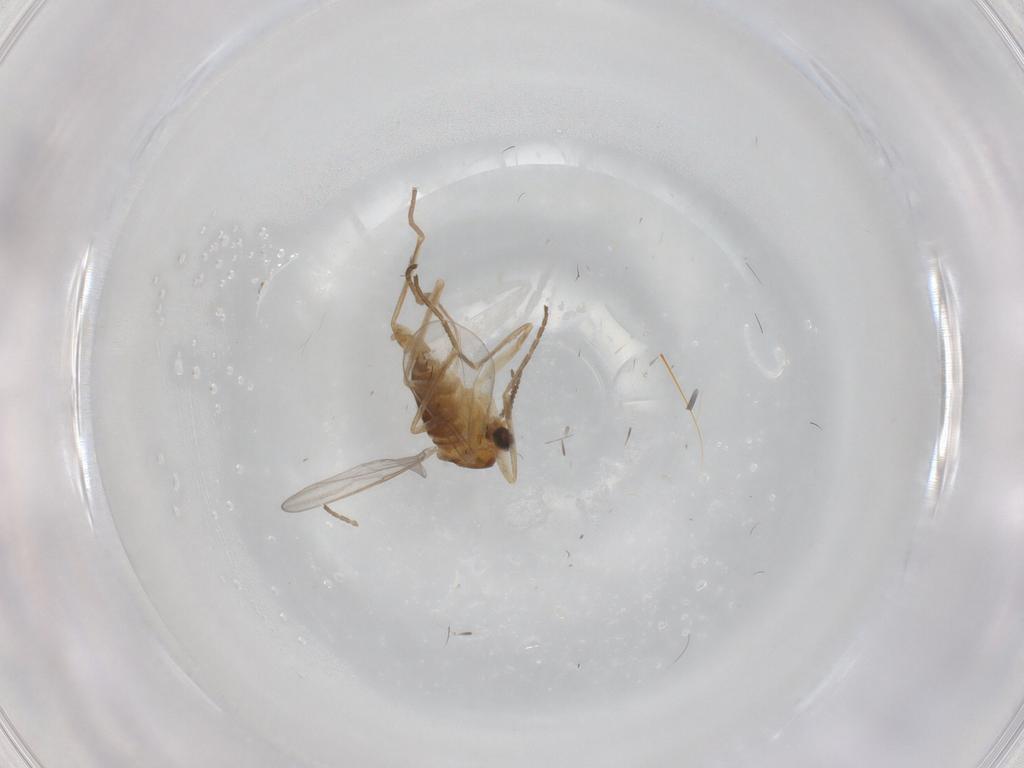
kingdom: Animalia
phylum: Arthropoda
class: Insecta
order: Diptera
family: Cecidomyiidae
